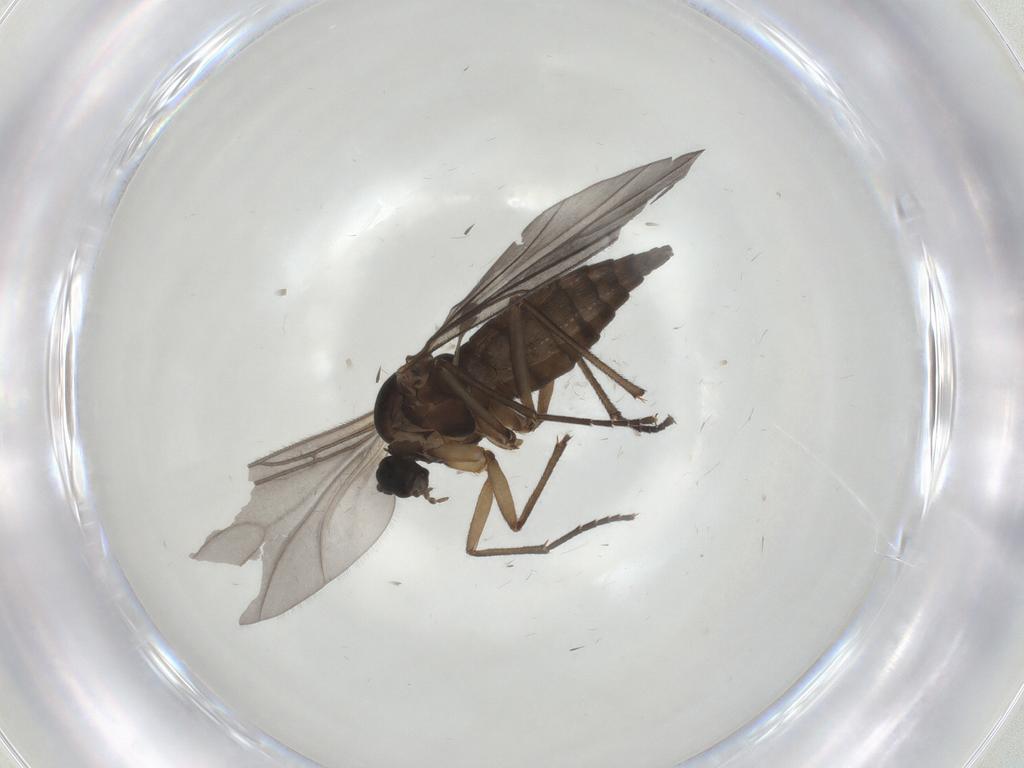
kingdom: Animalia
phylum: Arthropoda
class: Insecta
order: Diptera
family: Sciaridae
